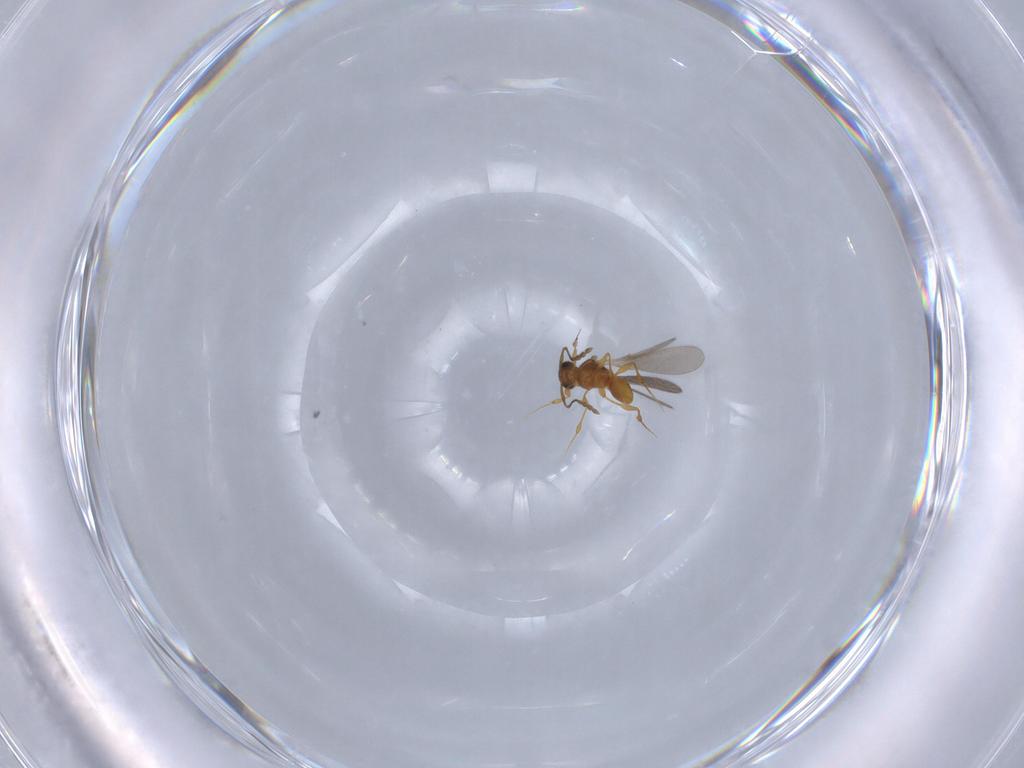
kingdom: Animalia
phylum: Arthropoda
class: Insecta
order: Hymenoptera
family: Platygastridae
